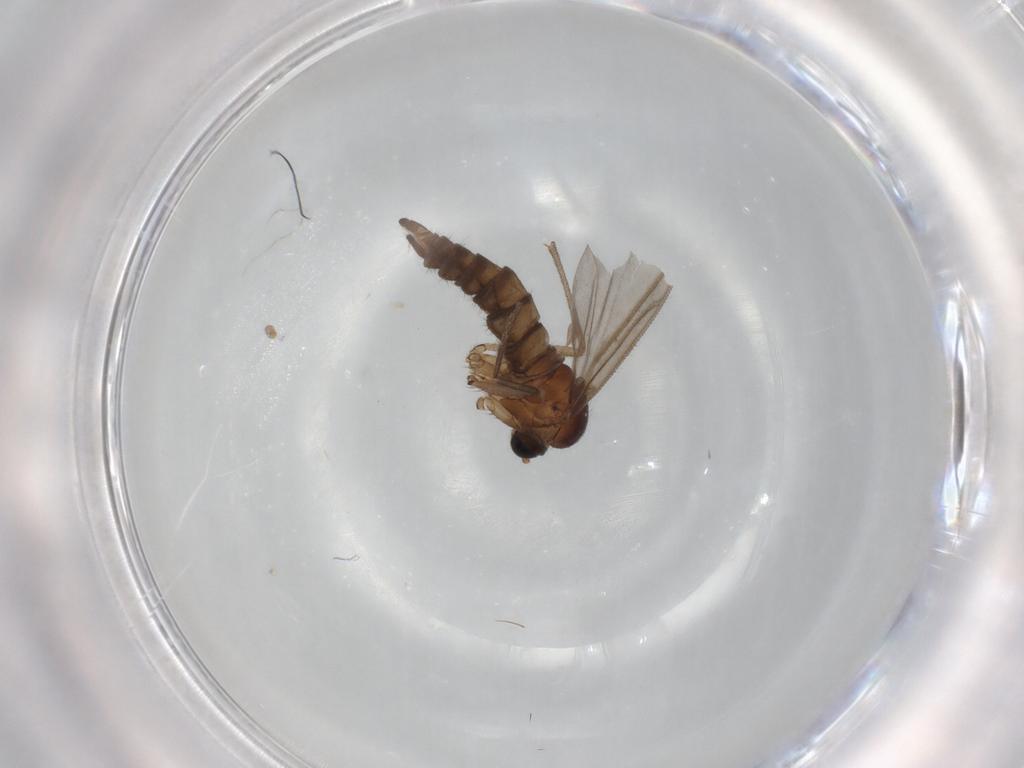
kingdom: Animalia
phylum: Arthropoda
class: Insecta
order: Diptera
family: Sciaridae
